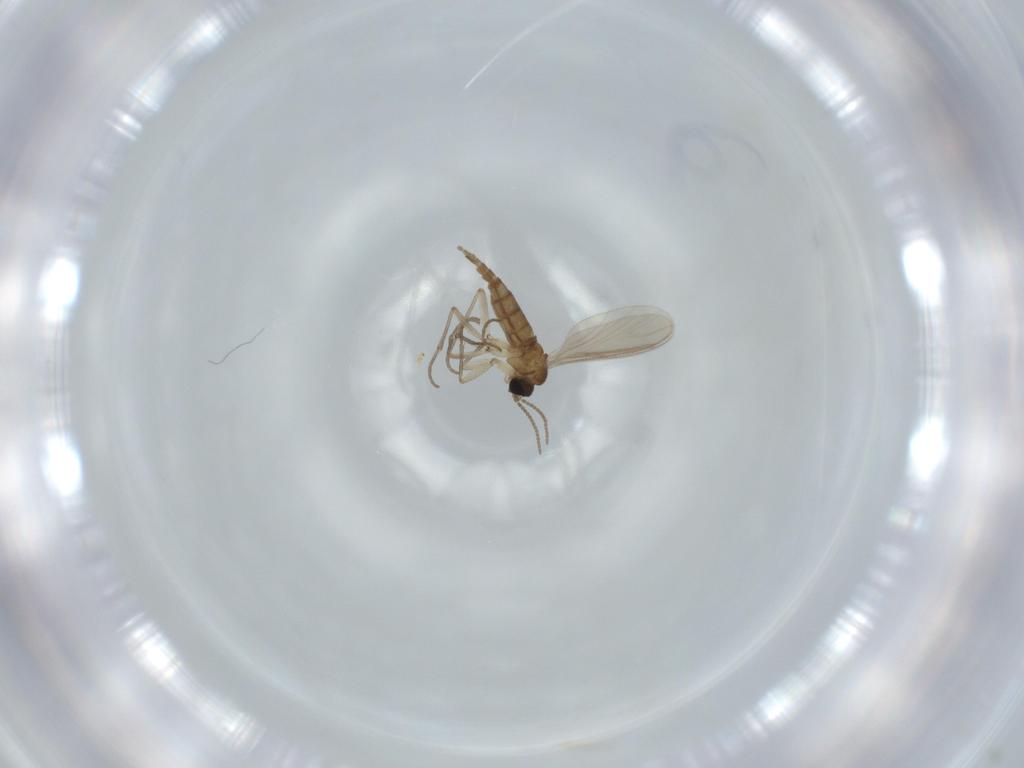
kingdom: Animalia
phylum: Arthropoda
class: Insecta
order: Diptera
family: Sciaridae
